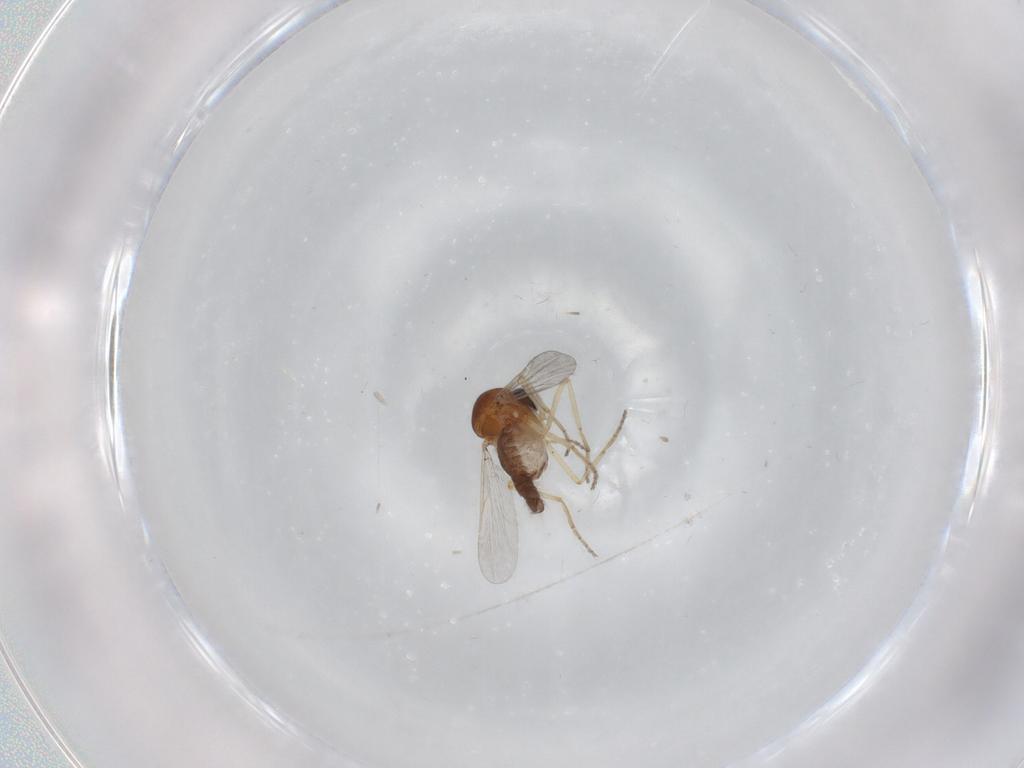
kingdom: Animalia
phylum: Arthropoda
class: Insecta
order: Diptera
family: Ceratopogonidae
